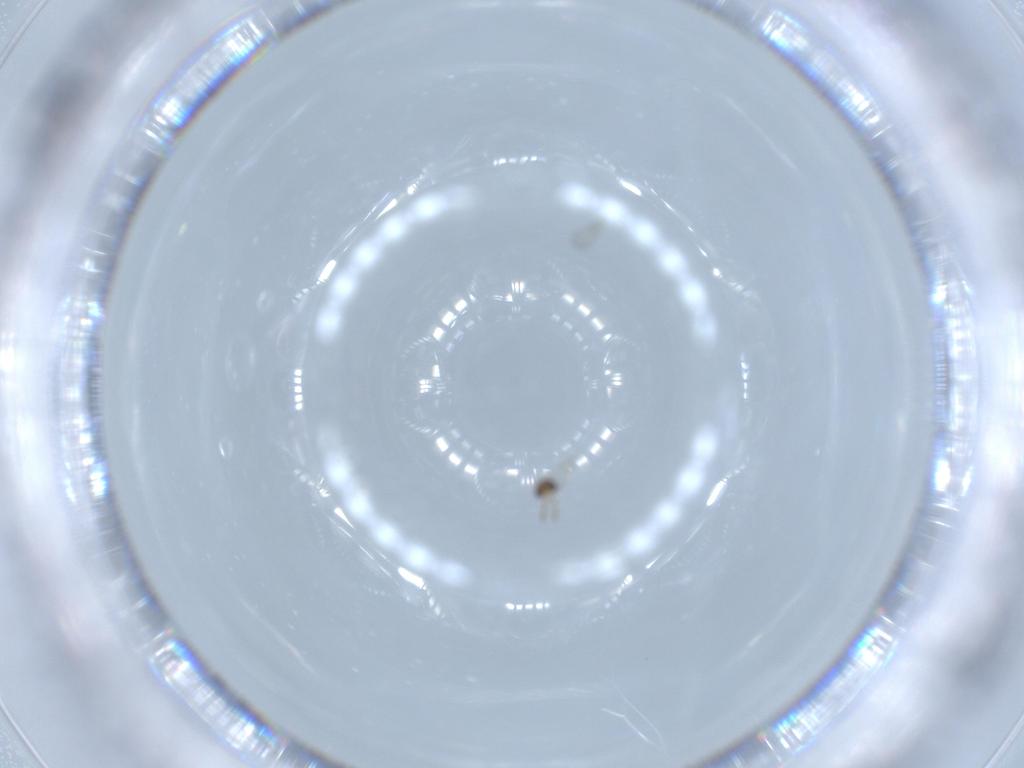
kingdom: Animalia
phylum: Arthropoda
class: Insecta
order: Hymenoptera
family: Aphelinidae
